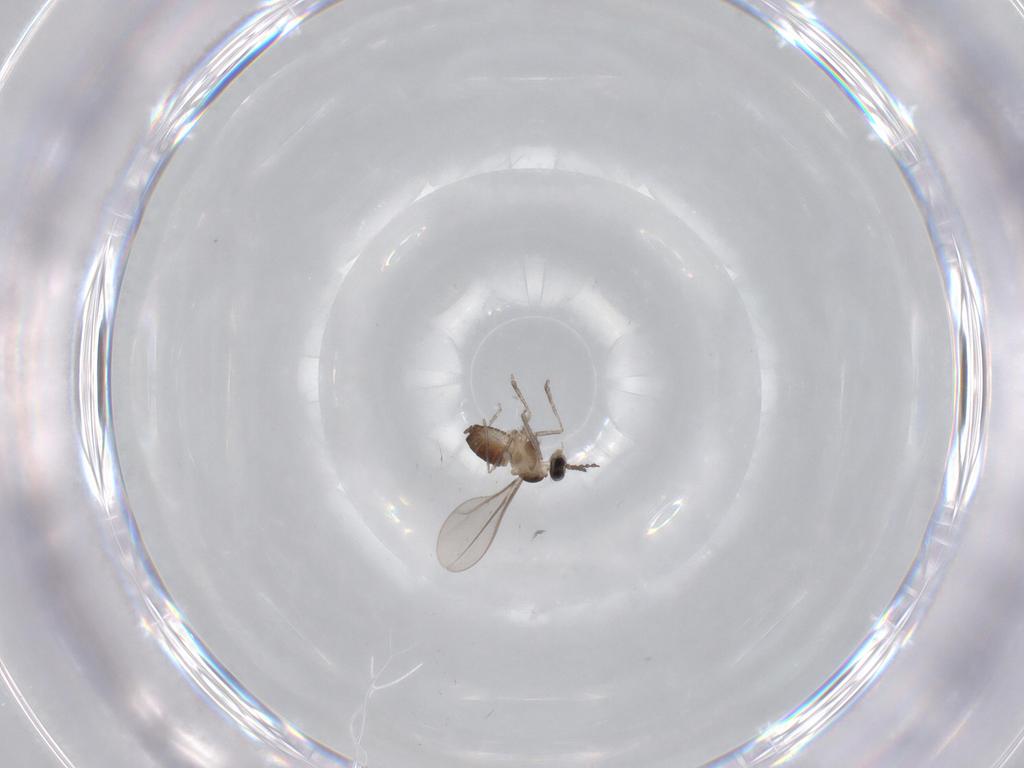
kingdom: Animalia
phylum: Arthropoda
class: Insecta
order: Diptera
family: Cecidomyiidae
